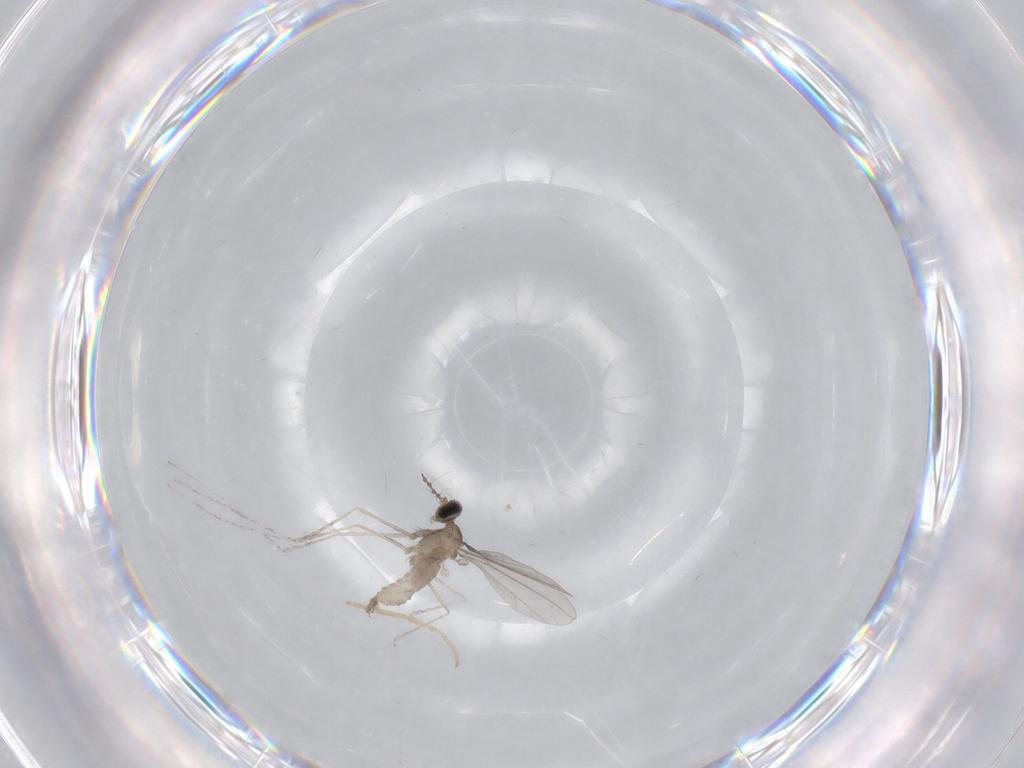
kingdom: Animalia
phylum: Arthropoda
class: Insecta
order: Diptera
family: Cecidomyiidae
